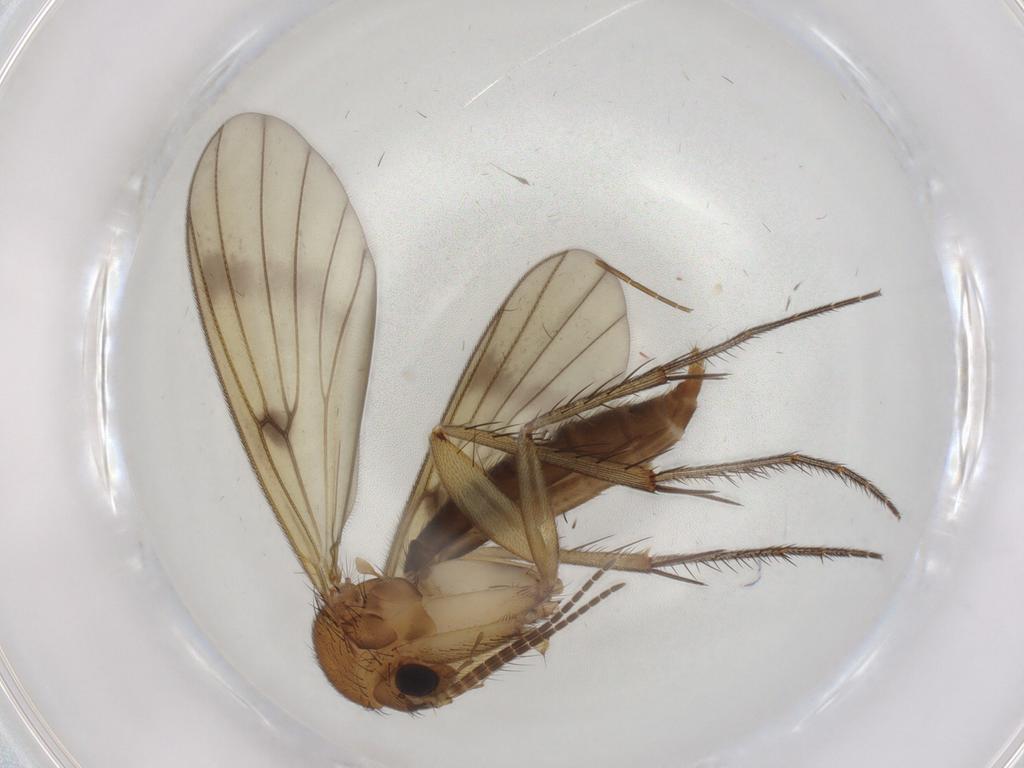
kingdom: Animalia
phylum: Arthropoda
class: Insecta
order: Diptera
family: Mycetophilidae
